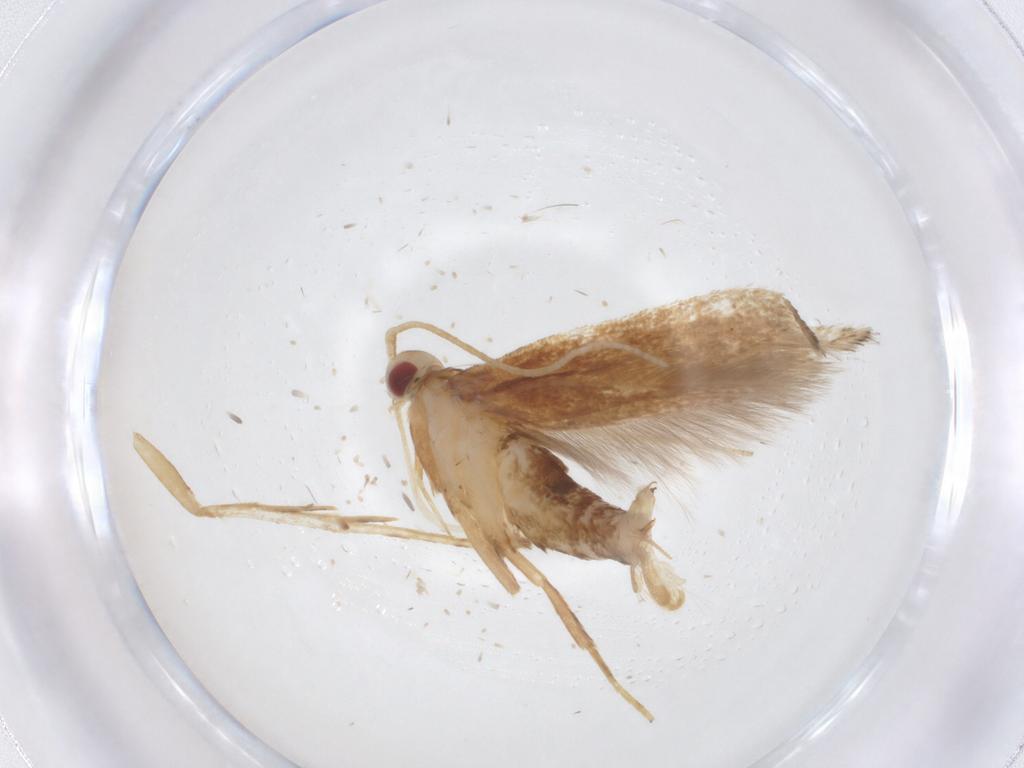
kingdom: Animalia
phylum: Arthropoda
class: Insecta
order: Lepidoptera
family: Cosmopterigidae
